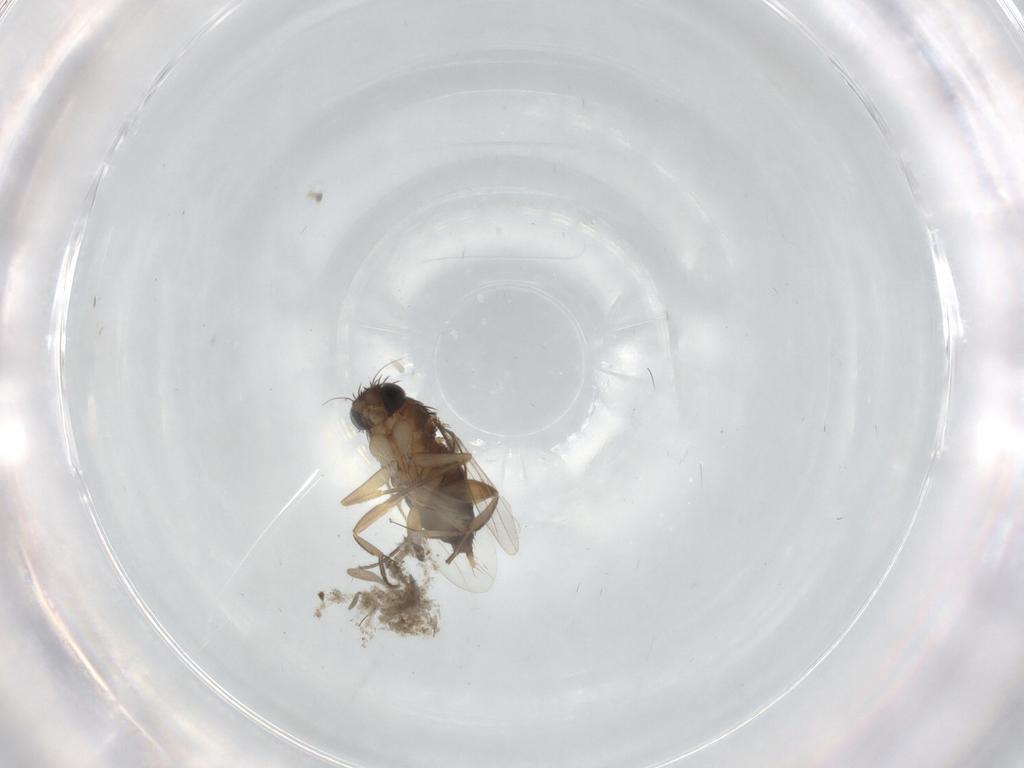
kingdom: Animalia
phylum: Arthropoda
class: Insecta
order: Diptera
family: Phoridae
